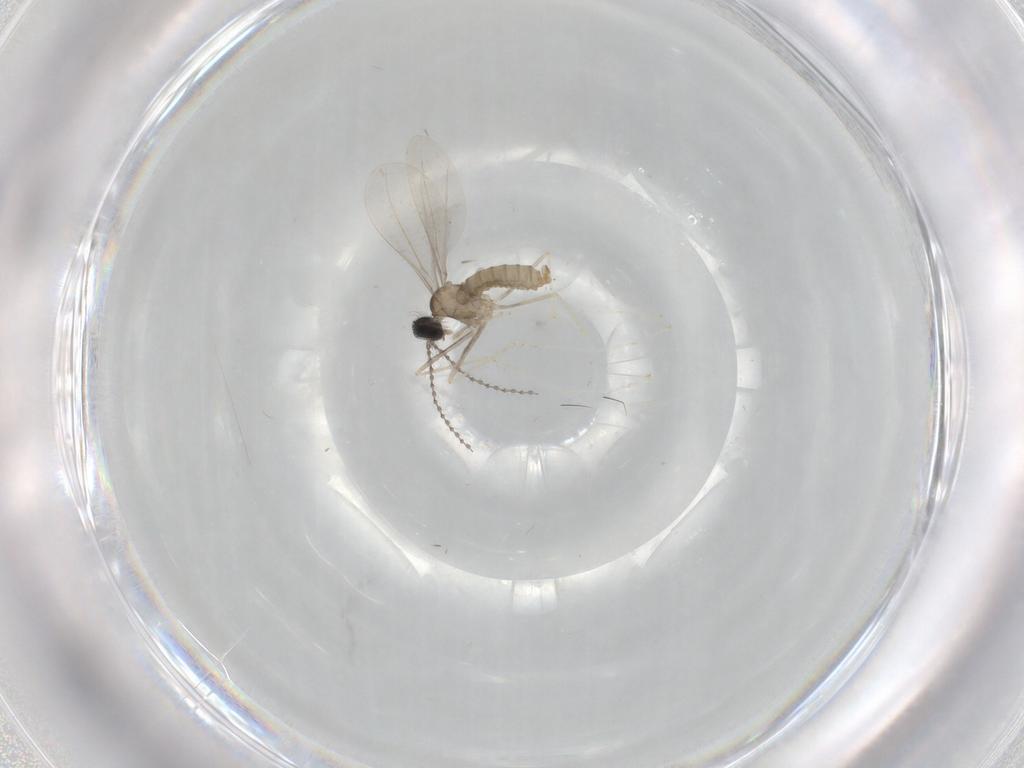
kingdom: Animalia
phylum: Arthropoda
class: Insecta
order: Diptera
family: Cecidomyiidae
